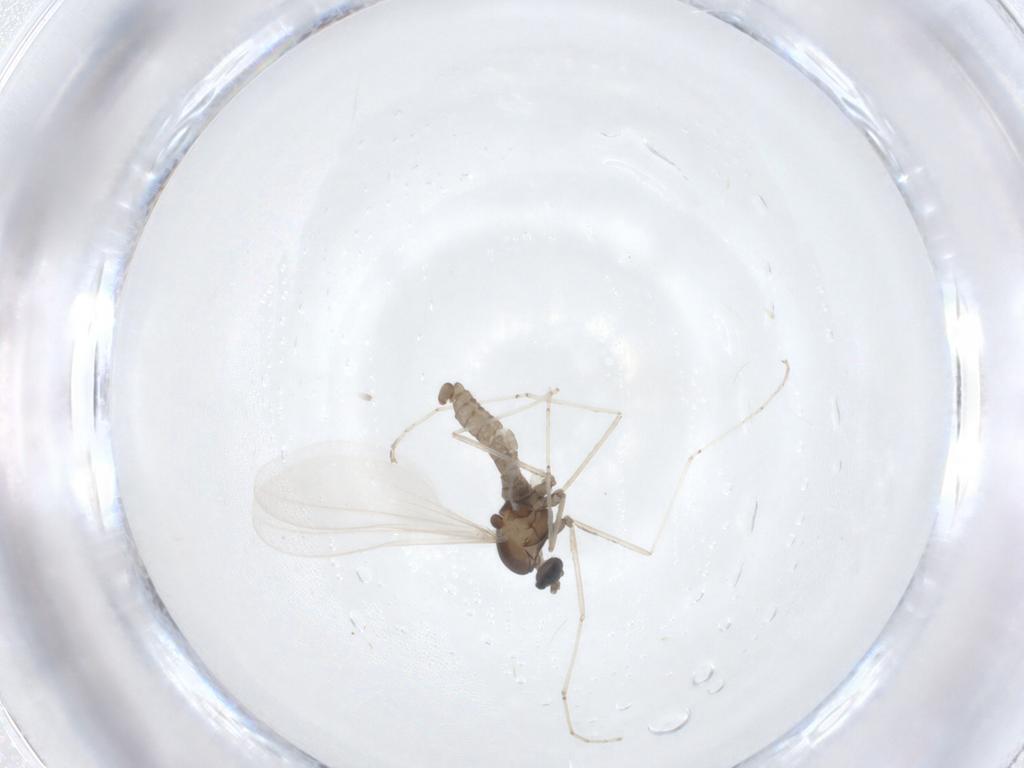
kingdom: Animalia
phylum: Arthropoda
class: Insecta
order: Diptera
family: Cecidomyiidae
